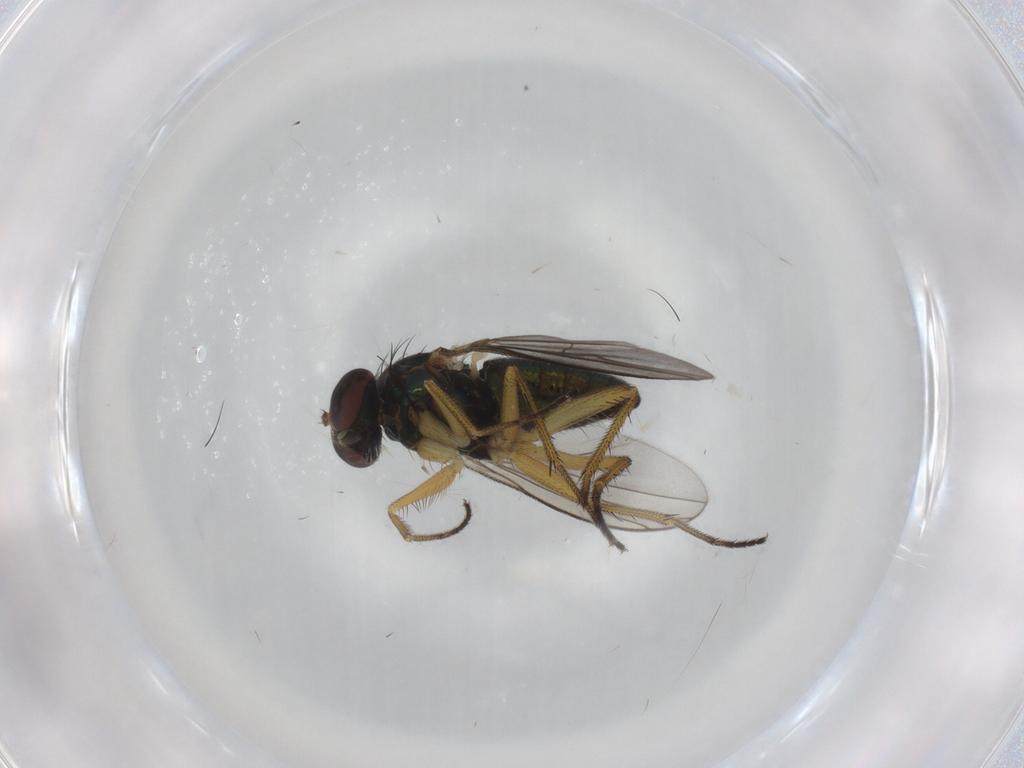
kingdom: Animalia
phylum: Arthropoda
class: Insecta
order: Diptera
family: Dolichopodidae
